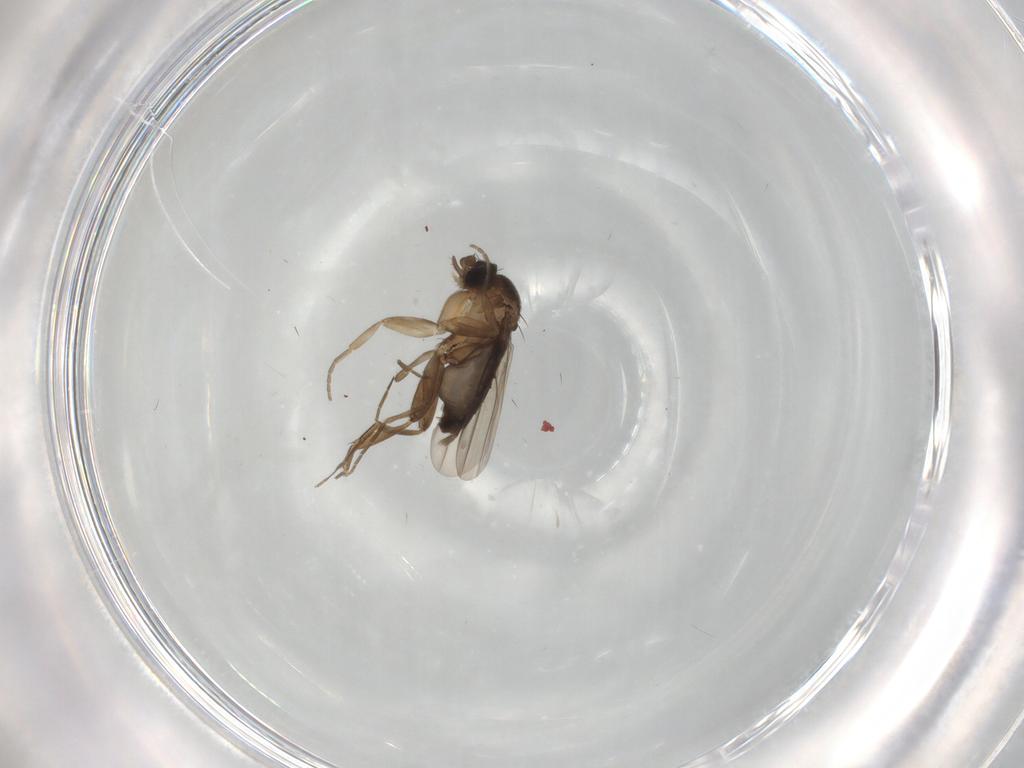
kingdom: Animalia
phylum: Arthropoda
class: Insecta
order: Diptera
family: Phoridae
